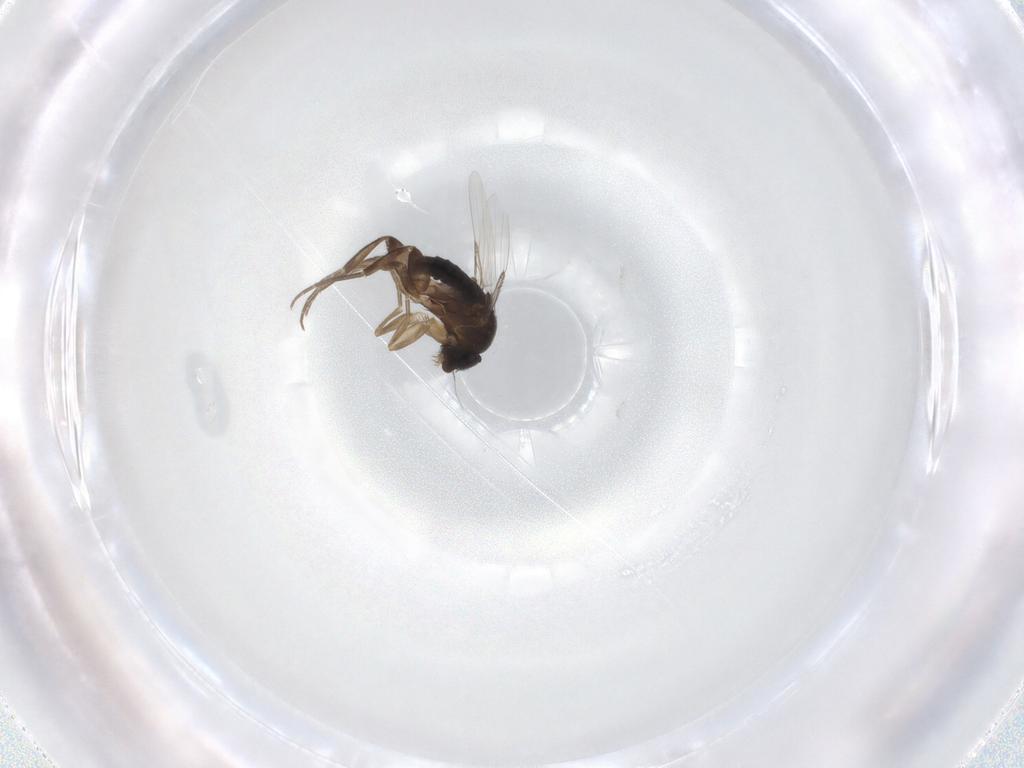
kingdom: Animalia
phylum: Arthropoda
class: Insecta
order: Diptera
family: Phoridae
